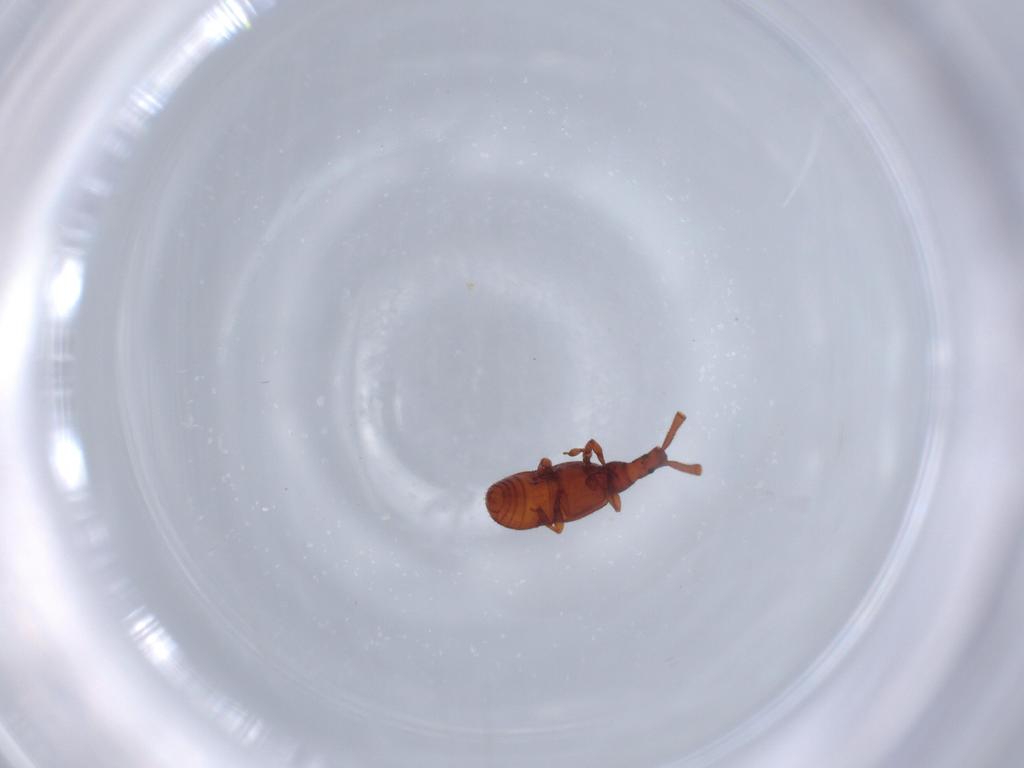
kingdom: Animalia
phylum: Arthropoda
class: Insecta
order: Coleoptera
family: Staphylinidae
